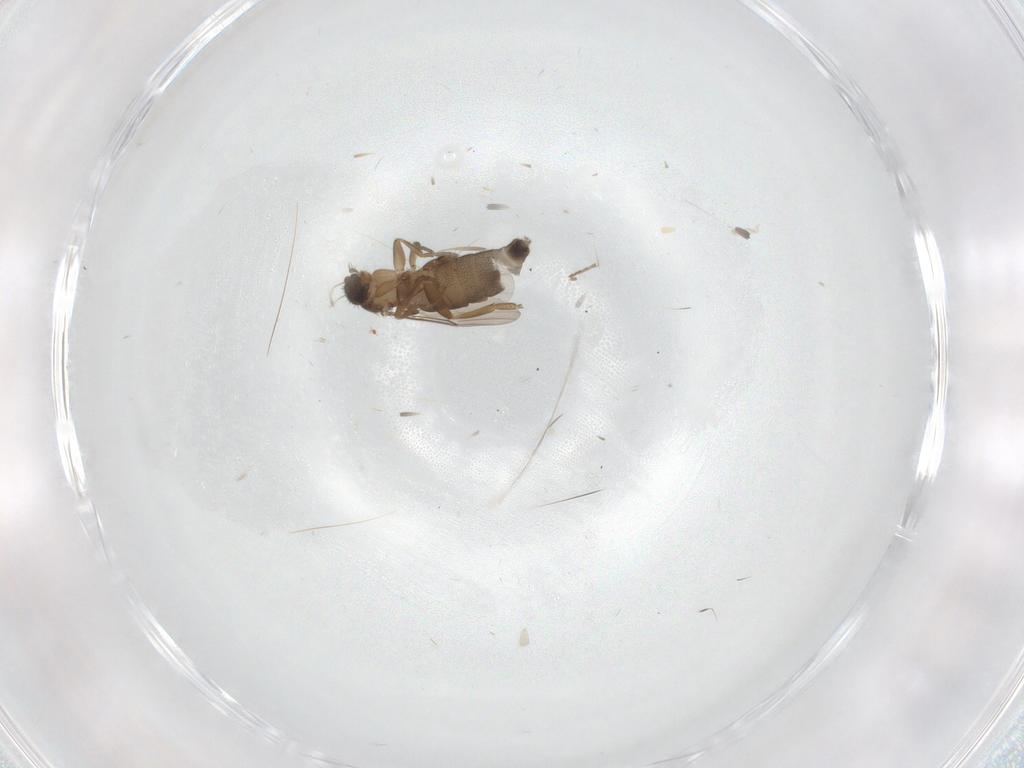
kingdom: Animalia
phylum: Arthropoda
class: Insecta
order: Diptera
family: Phoridae
